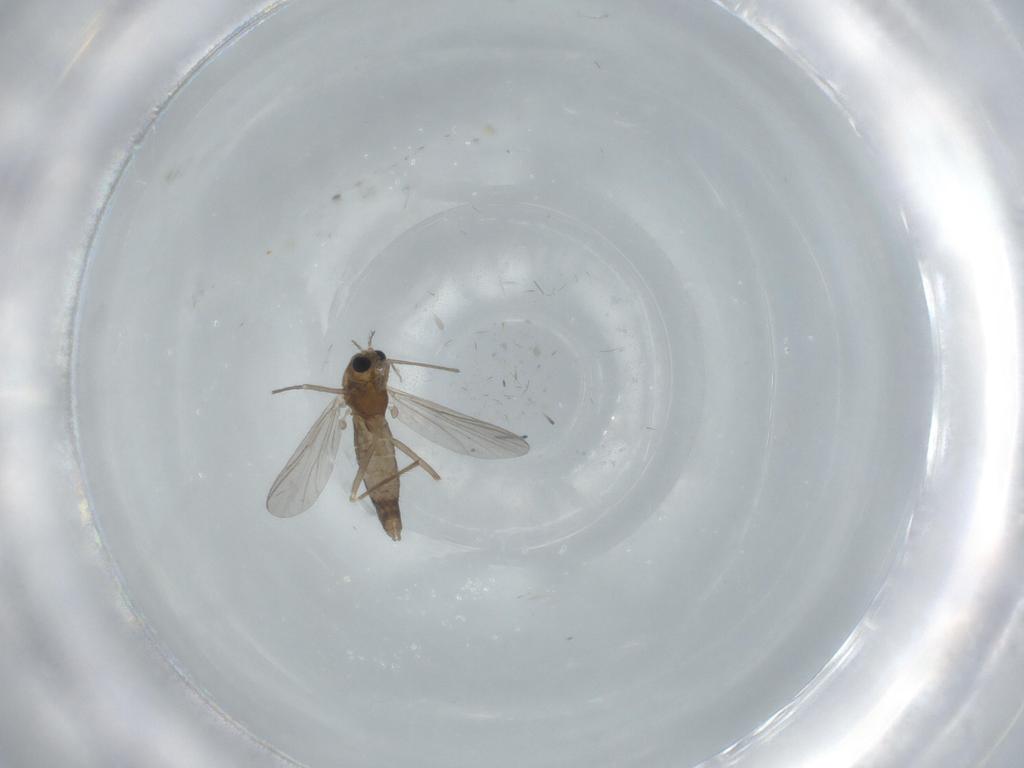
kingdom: Animalia
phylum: Arthropoda
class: Insecta
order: Diptera
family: Chironomidae
